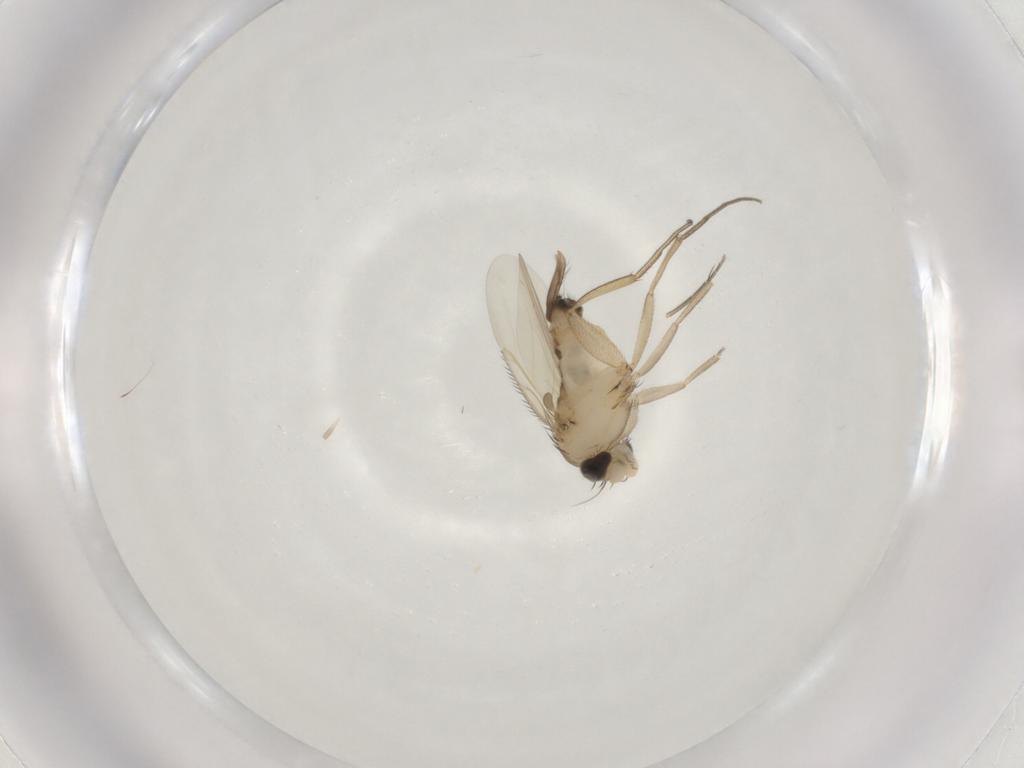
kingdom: Animalia
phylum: Arthropoda
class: Insecta
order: Diptera
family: Phoridae
